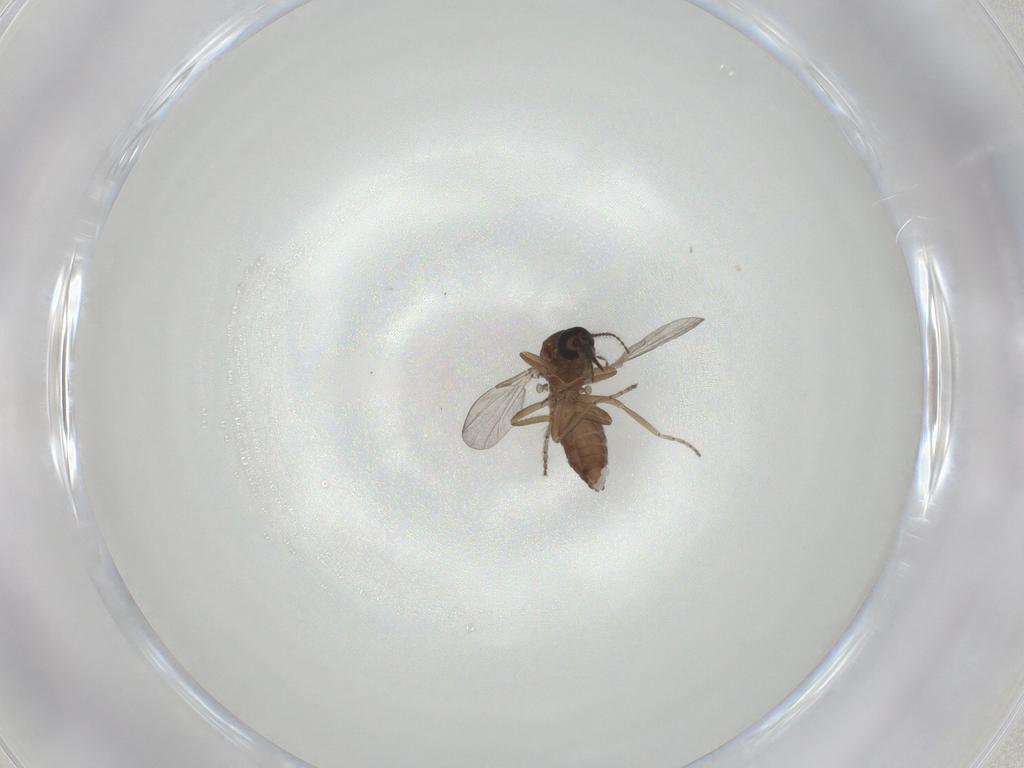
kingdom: Animalia
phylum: Arthropoda
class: Insecta
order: Diptera
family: Ceratopogonidae
